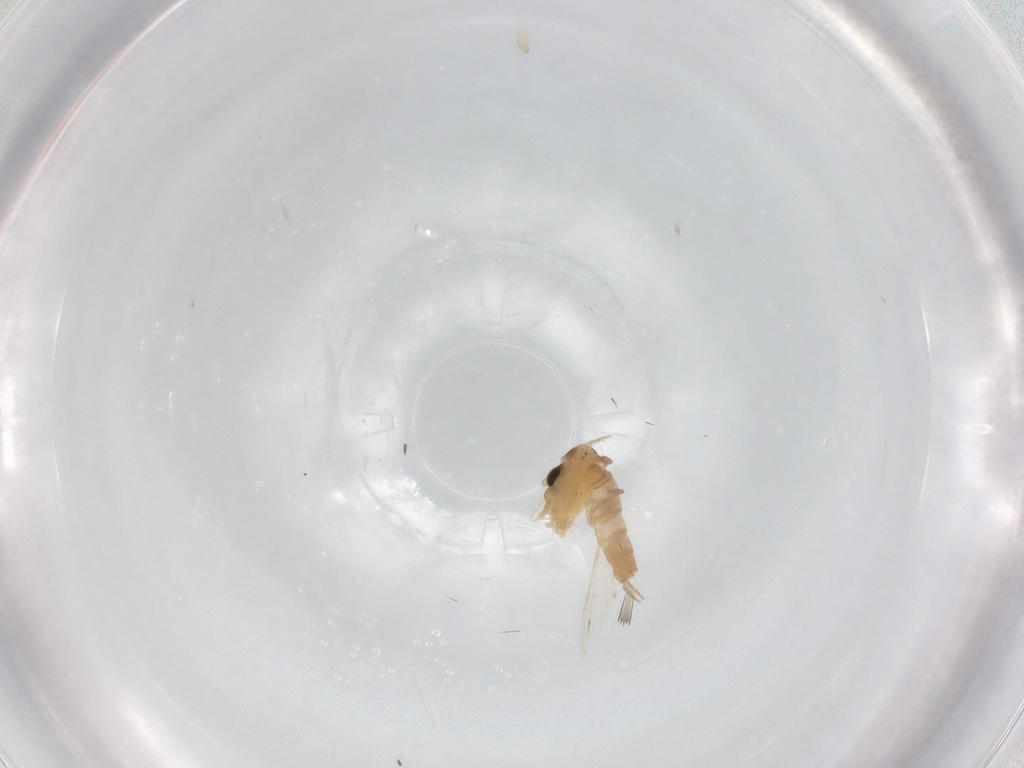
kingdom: Animalia
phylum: Arthropoda
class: Insecta
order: Diptera
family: Psychodidae
